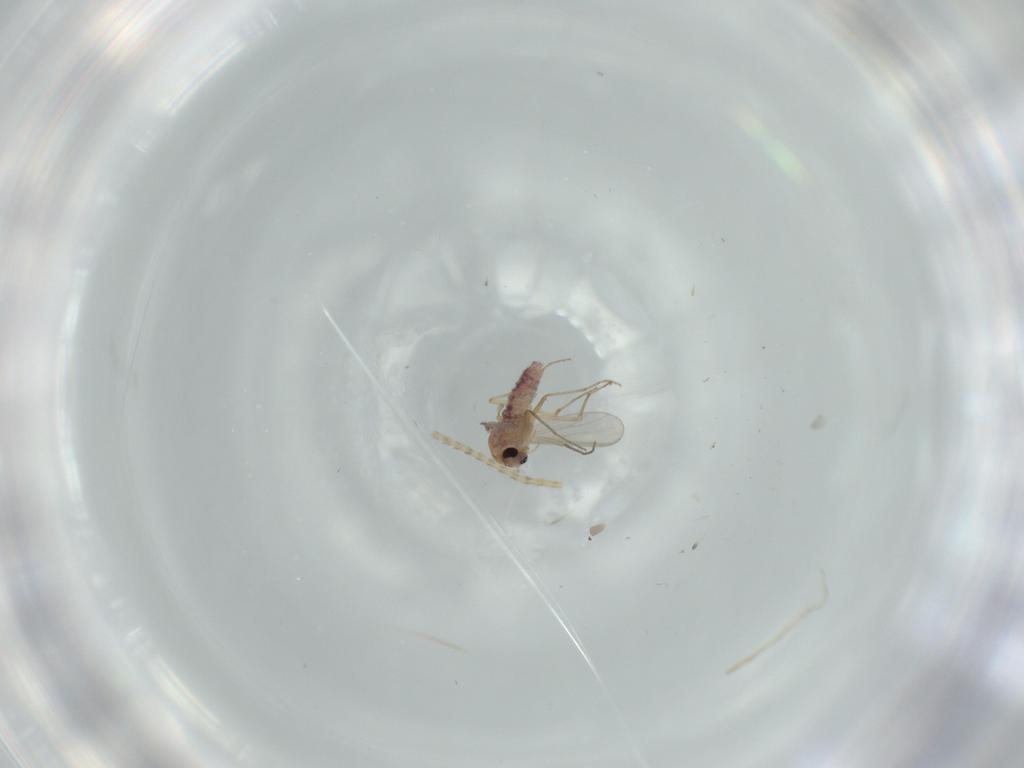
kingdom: Animalia
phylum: Arthropoda
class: Insecta
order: Diptera
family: Chironomidae
